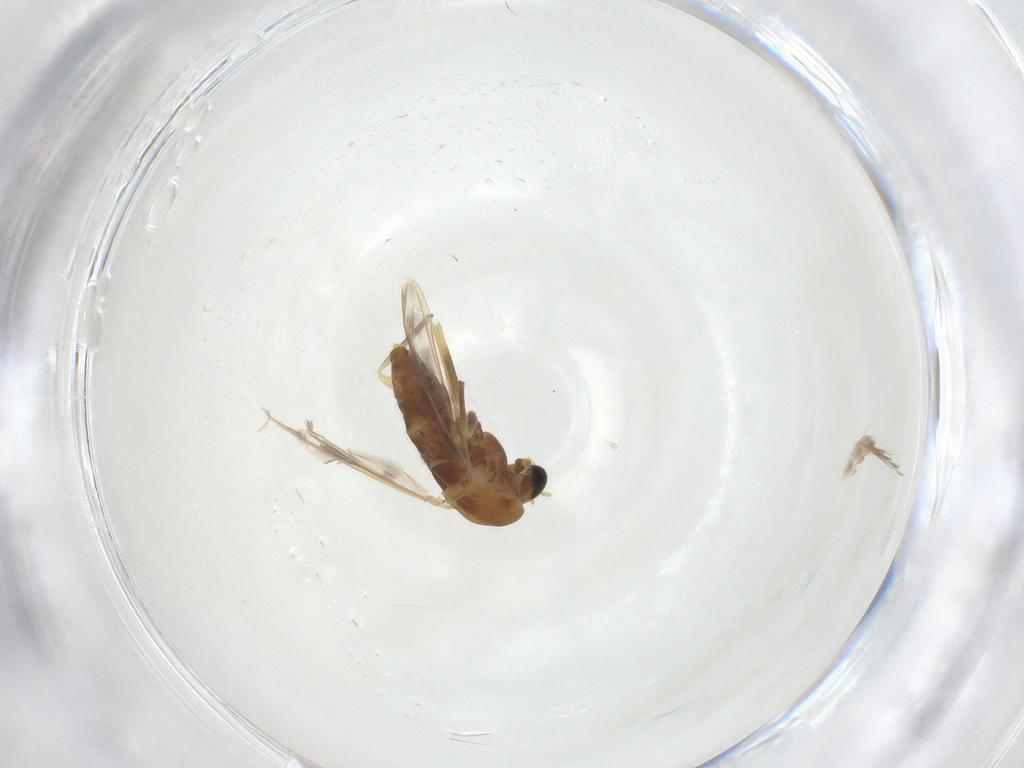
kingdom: Animalia
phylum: Arthropoda
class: Insecta
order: Diptera
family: Chironomidae
